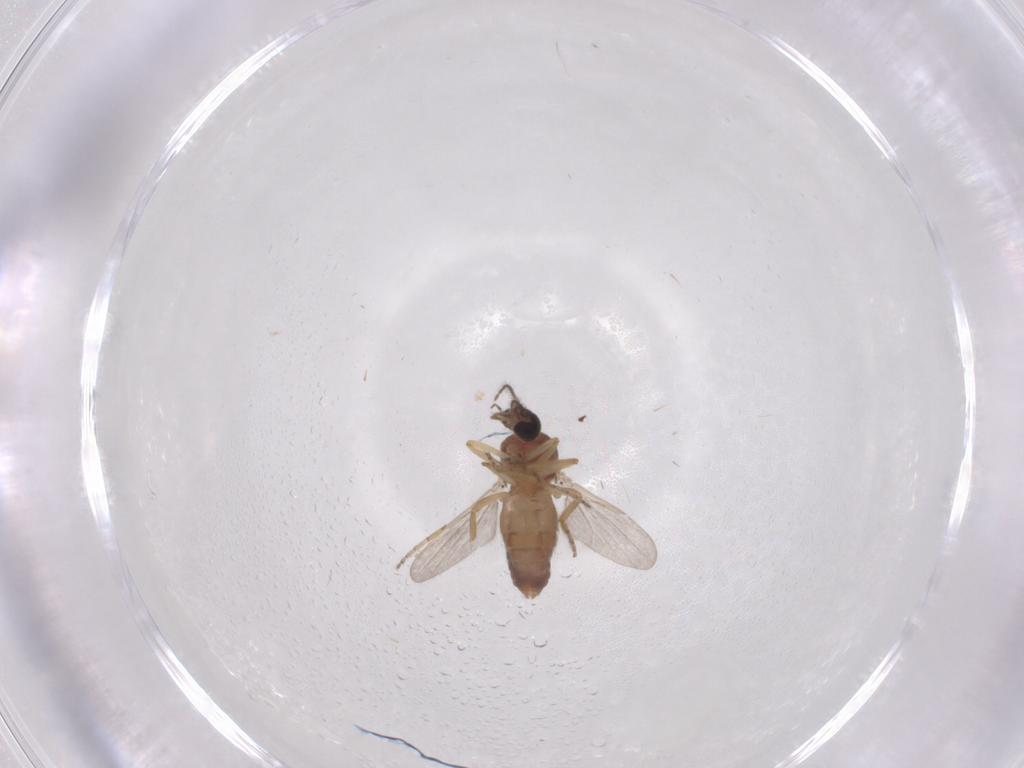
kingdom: Animalia
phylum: Arthropoda
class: Insecta
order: Diptera
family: Ceratopogonidae
